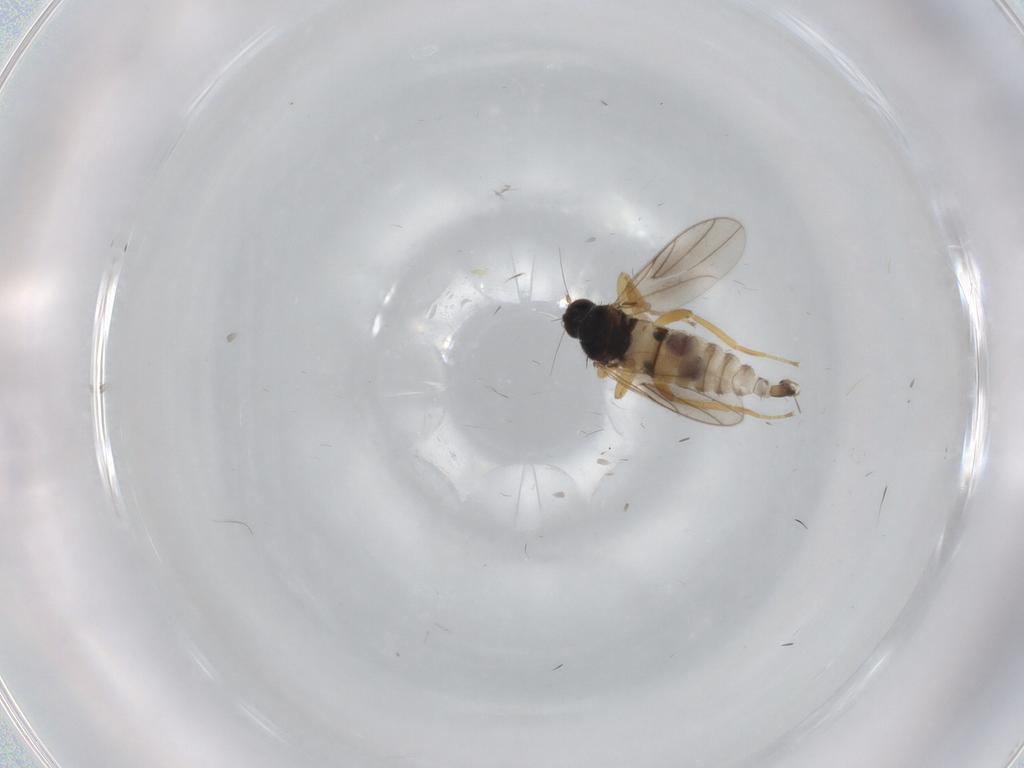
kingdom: Animalia
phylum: Arthropoda
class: Insecta
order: Diptera
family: Hybotidae
